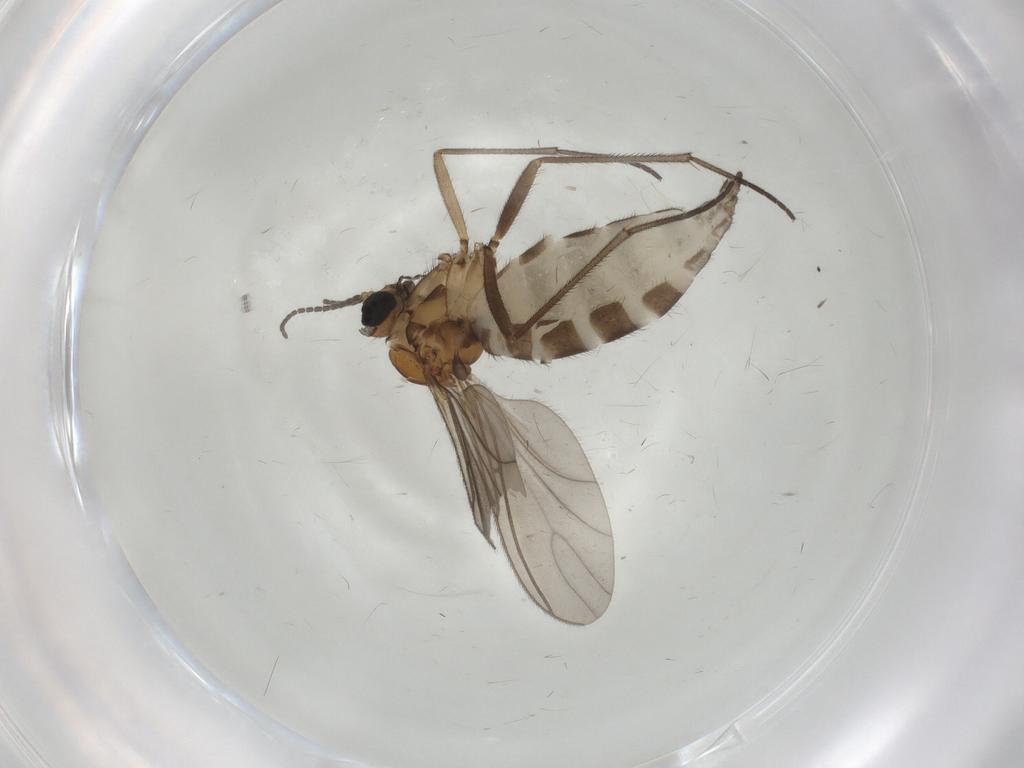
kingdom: Animalia
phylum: Arthropoda
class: Insecta
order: Diptera
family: Sciaridae
